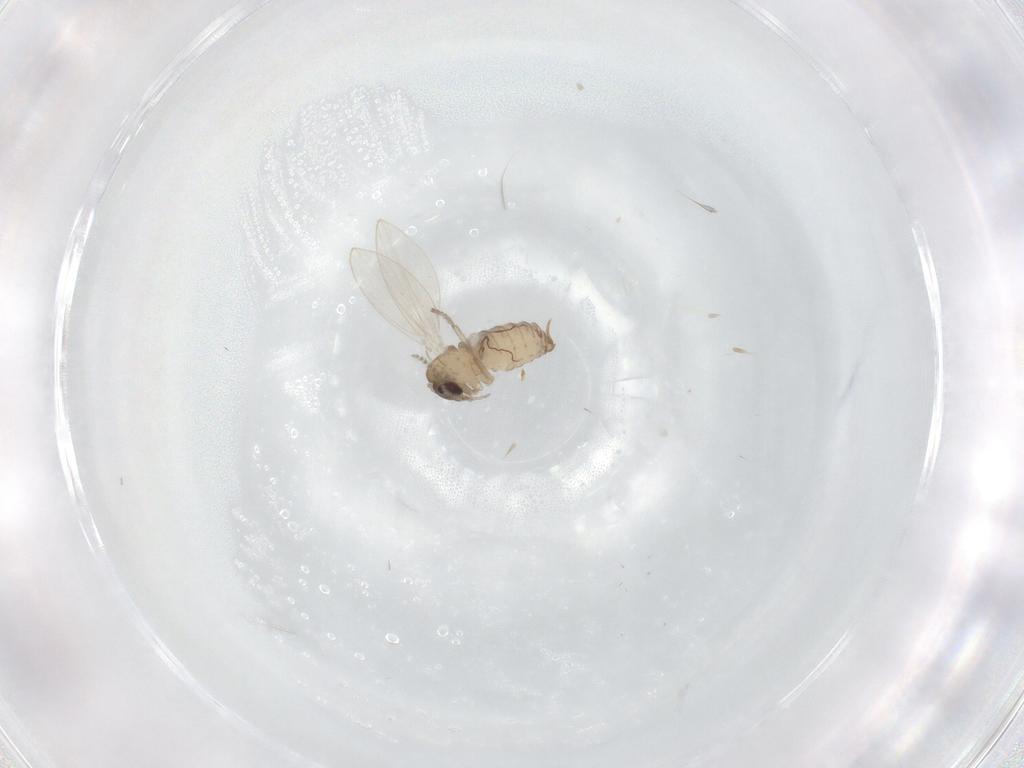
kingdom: Animalia
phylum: Arthropoda
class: Insecta
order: Diptera
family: Psychodidae
